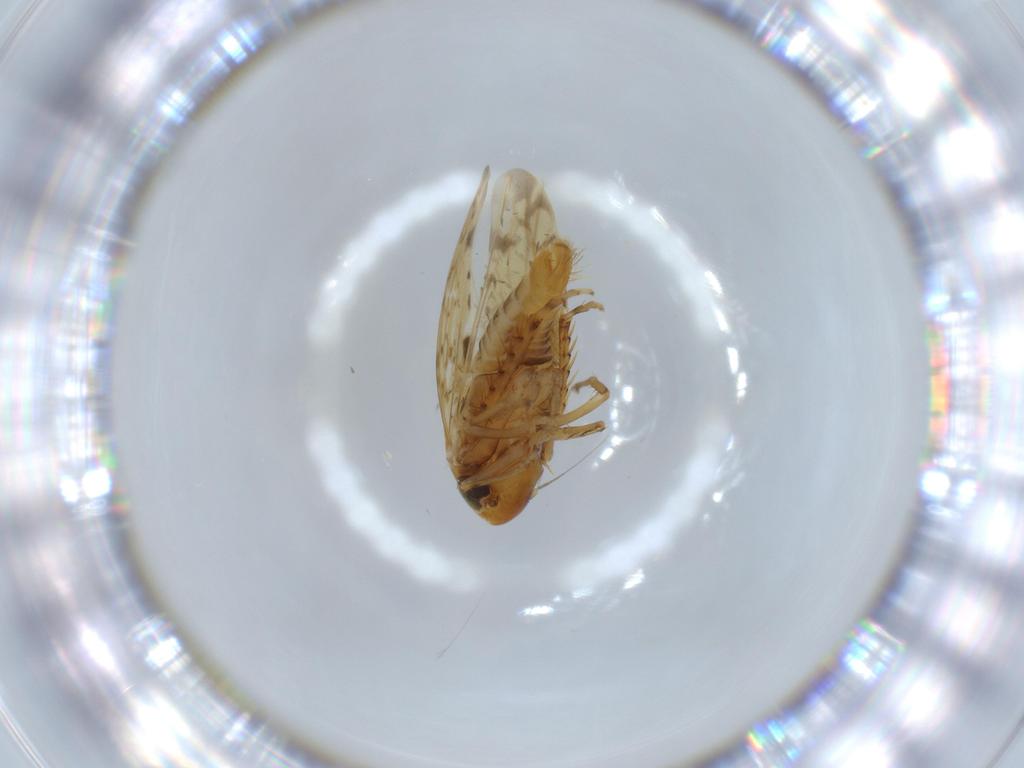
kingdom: Animalia
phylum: Arthropoda
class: Insecta
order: Hemiptera
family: Cicadellidae
